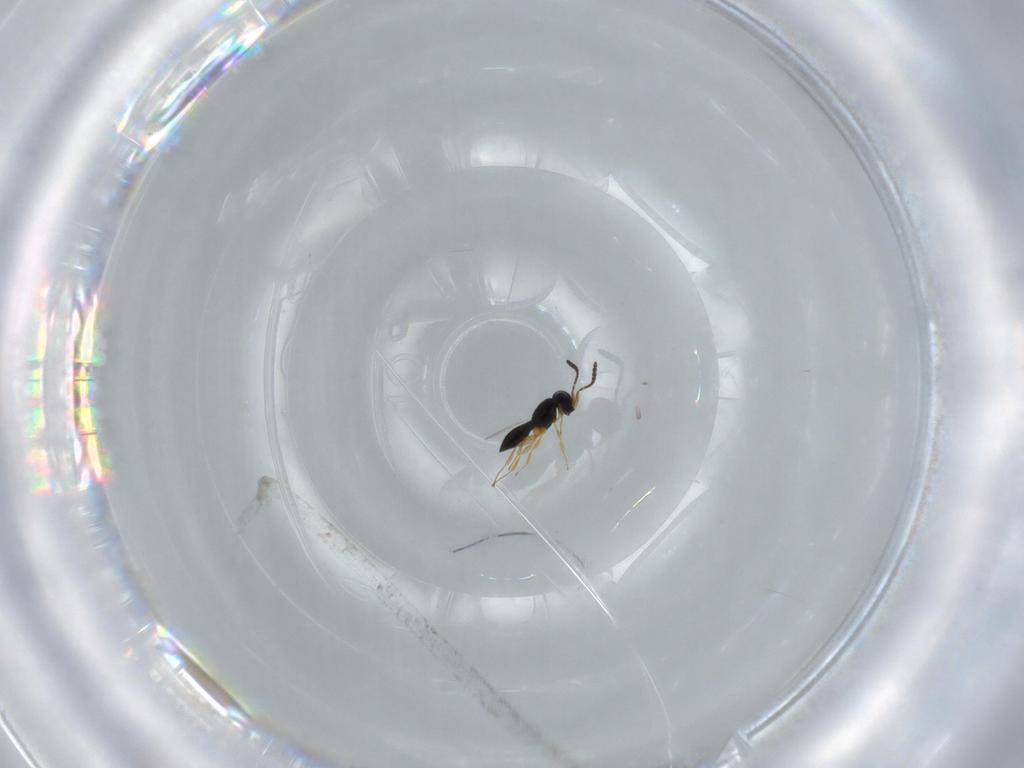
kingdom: Animalia
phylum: Arthropoda
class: Insecta
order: Hymenoptera
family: Scelionidae
